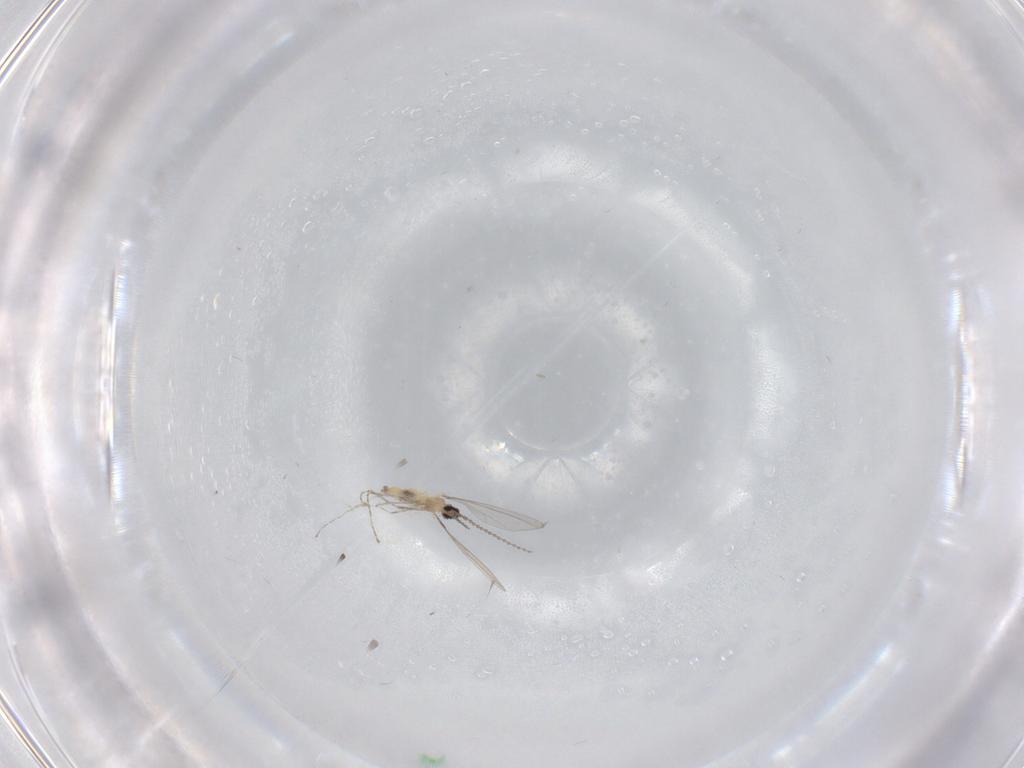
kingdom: Animalia
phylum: Arthropoda
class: Insecta
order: Diptera
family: Cecidomyiidae
